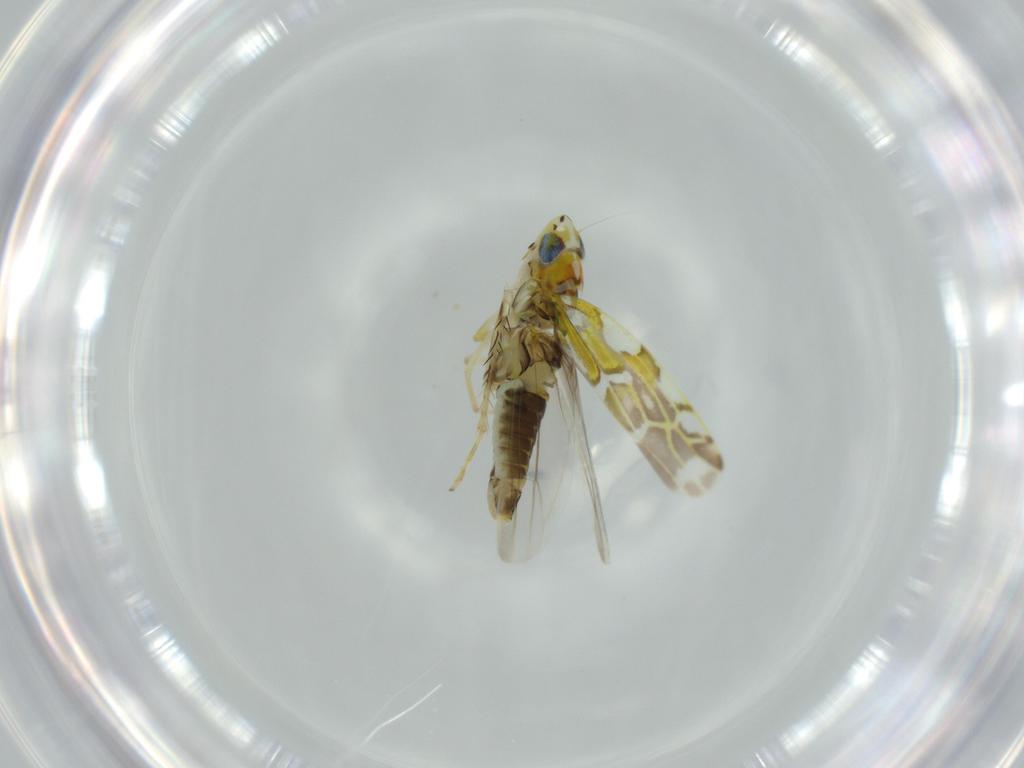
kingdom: Animalia
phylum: Arthropoda
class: Insecta
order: Hemiptera
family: Cicadellidae
